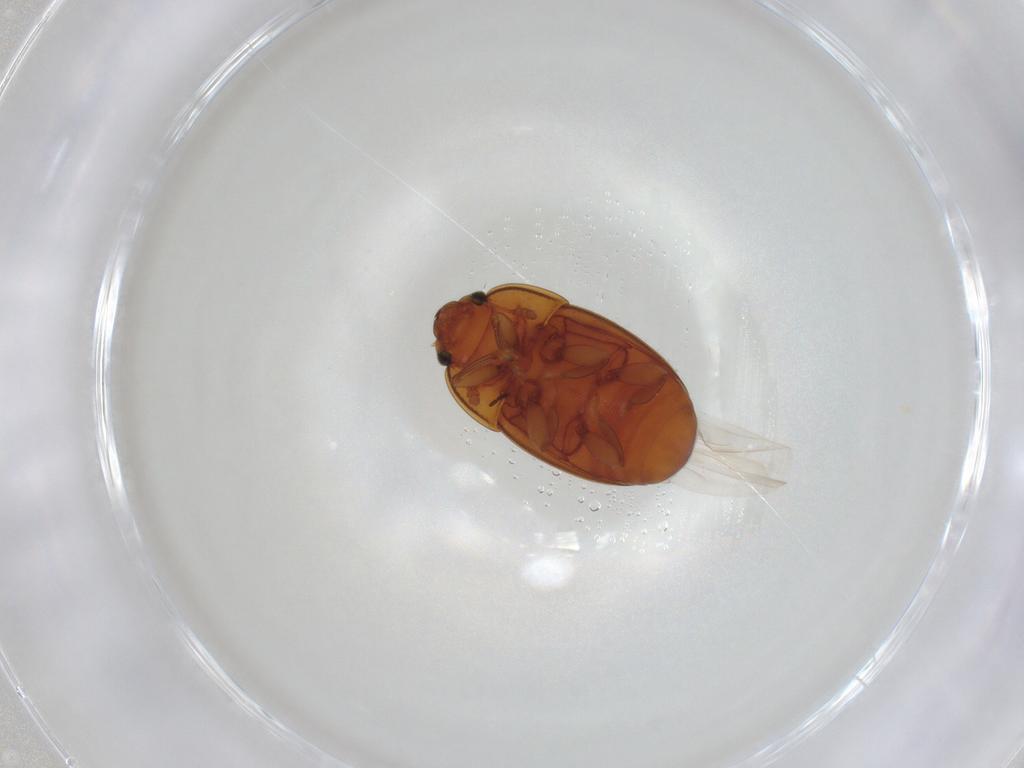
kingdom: Animalia
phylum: Arthropoda
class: Insecta
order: Coleoptera
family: Nitidulidae
